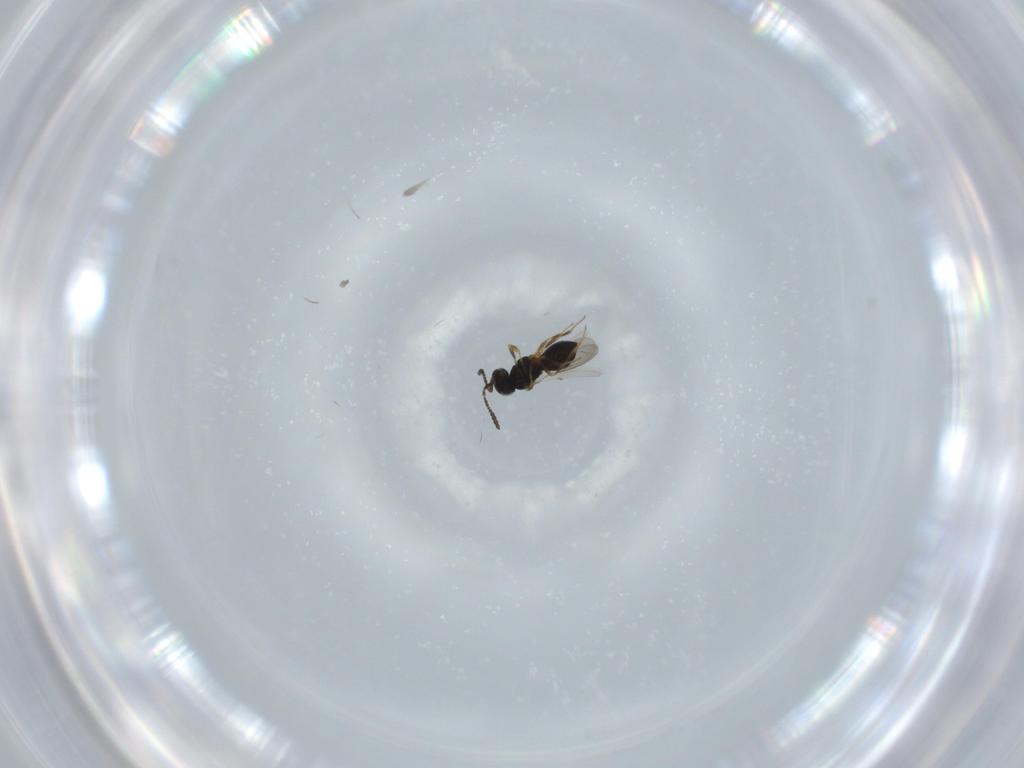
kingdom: Animalia
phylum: Arthropoda
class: Insecta
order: Hymenoptera
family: Scelionidae
